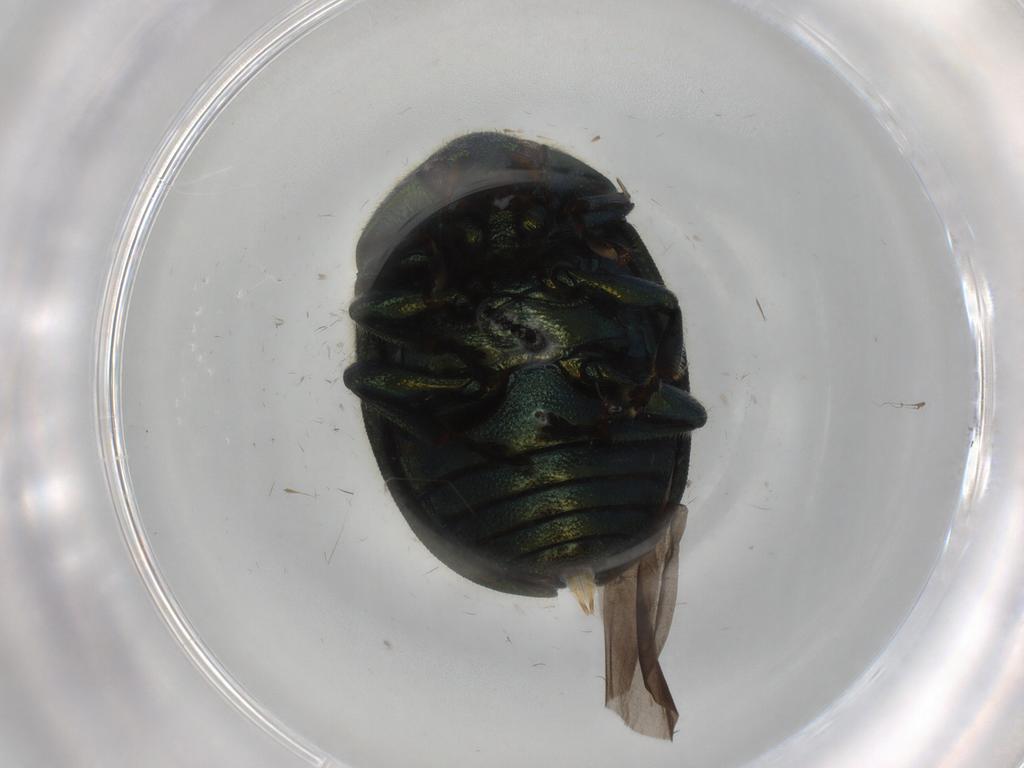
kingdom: Animalia
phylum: Arthropoda
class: Insecta
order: Coleoptera
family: Chrysomelidae
